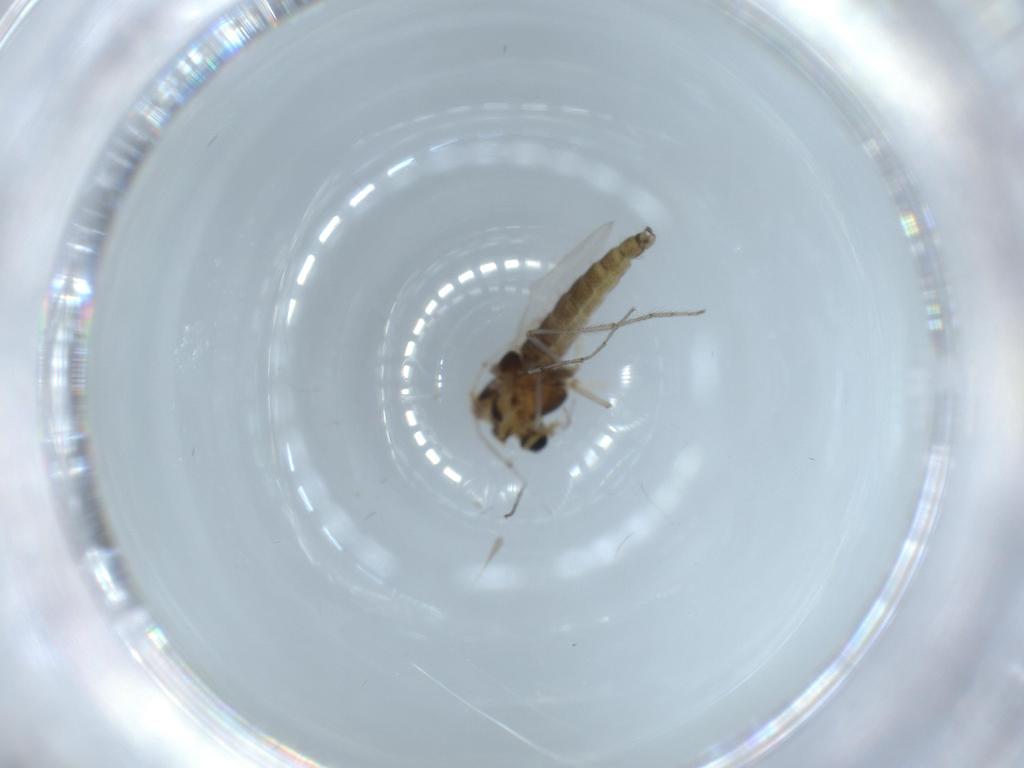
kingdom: Animalia
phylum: Arthropoda
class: Insecta
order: Diptera
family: Chironomidae
